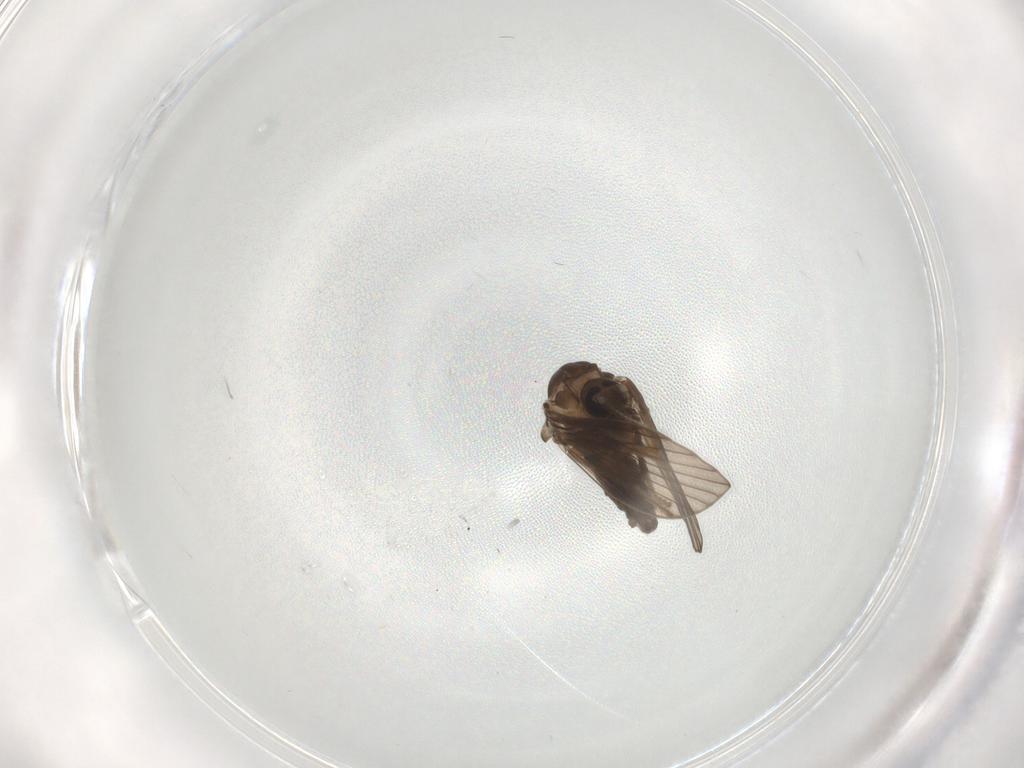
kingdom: Animalia
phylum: Arthropoda
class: Insecta
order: Diptera
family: Psychodidae
